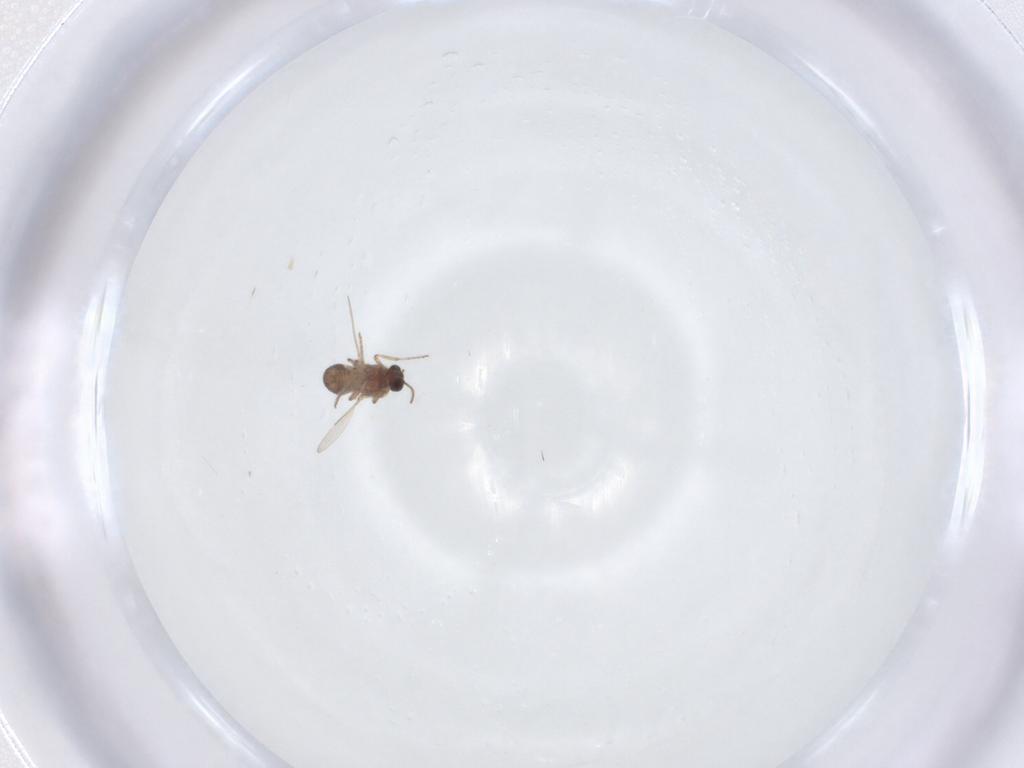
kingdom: Animalia
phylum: Arthropoda
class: Insecta
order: Diptera
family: Ceratopogonidae
